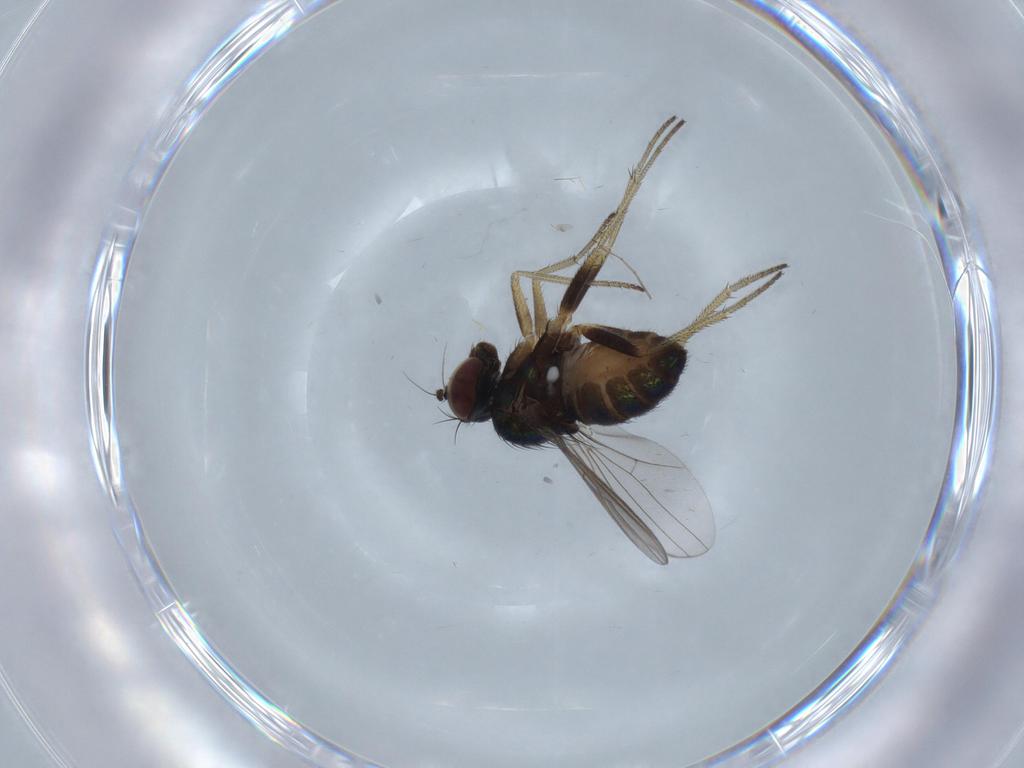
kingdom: Animalia
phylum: Arthropoda
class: Insecta
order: Diptera
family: Dolichopodidae
